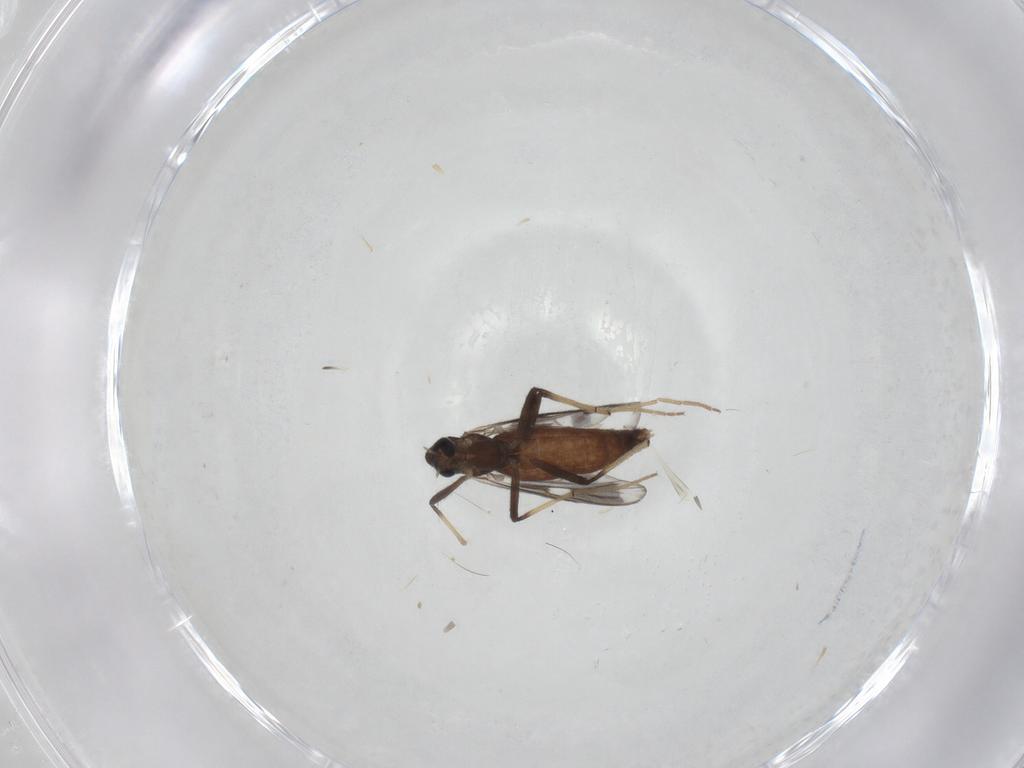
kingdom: Animalia
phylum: Arthropoda
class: Insecta
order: Diptera
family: Chironomidae
